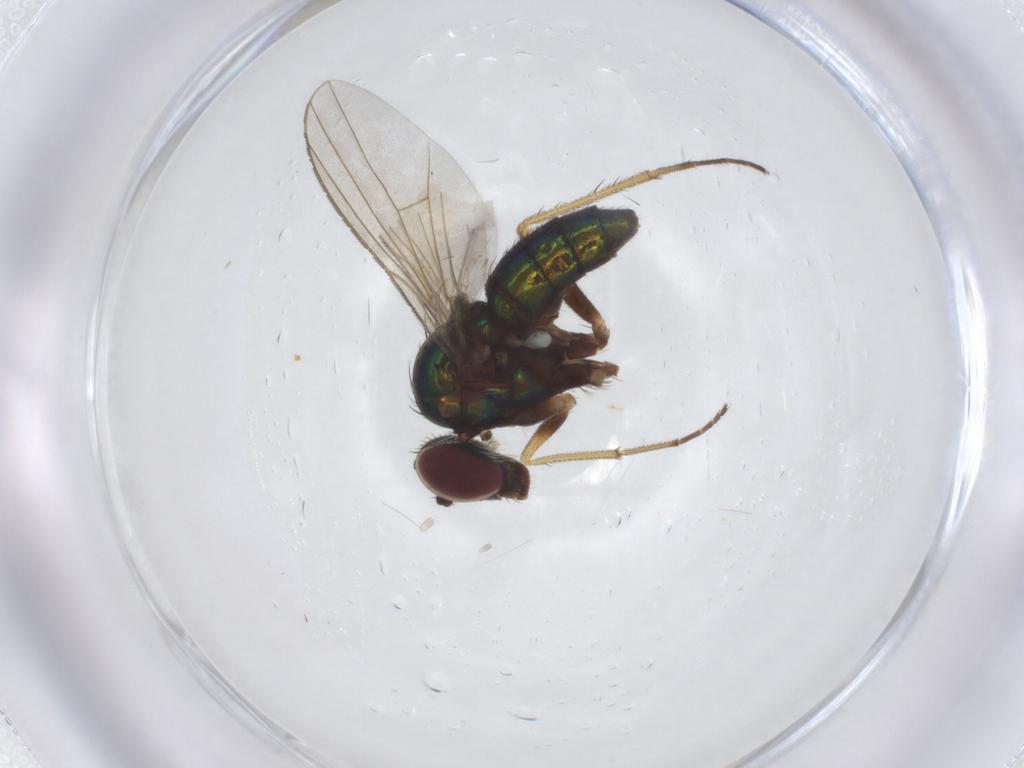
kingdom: Animalia
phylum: Arthropoda
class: Insecta
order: Diptera
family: Dolichopodidae
